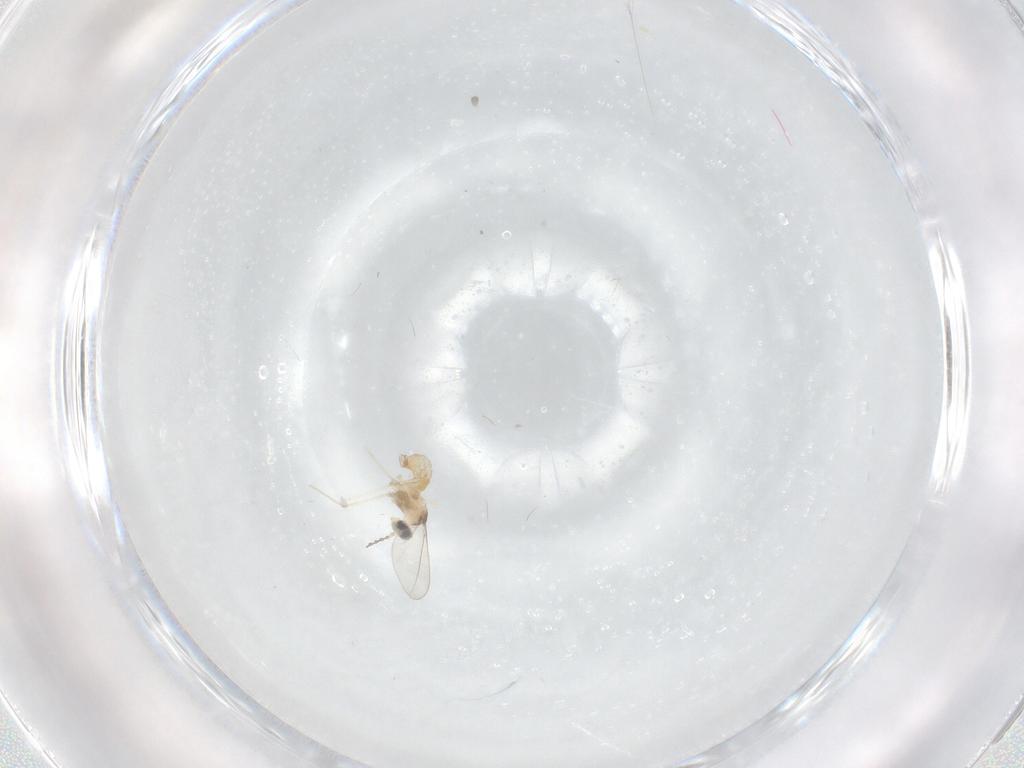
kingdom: Animalia
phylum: Arthropoda
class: Insecta
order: Diptera
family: Cecidomyiidae
